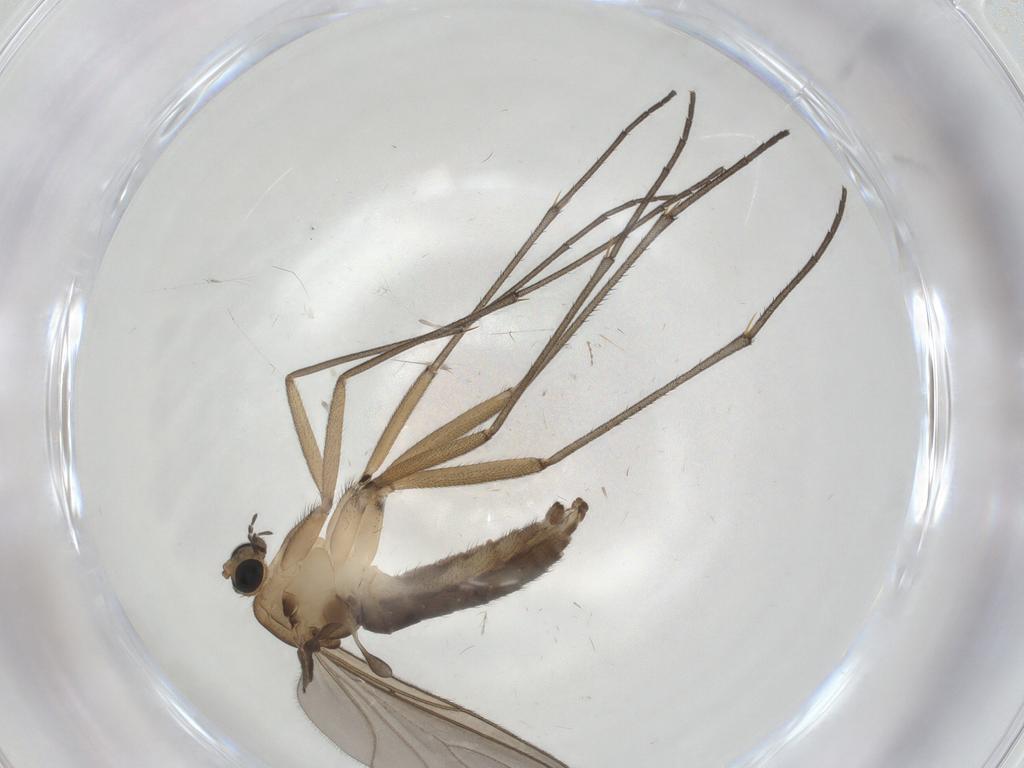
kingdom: Animalia
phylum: Arthropoda
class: Insecta
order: Diptera
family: Sciaridae
